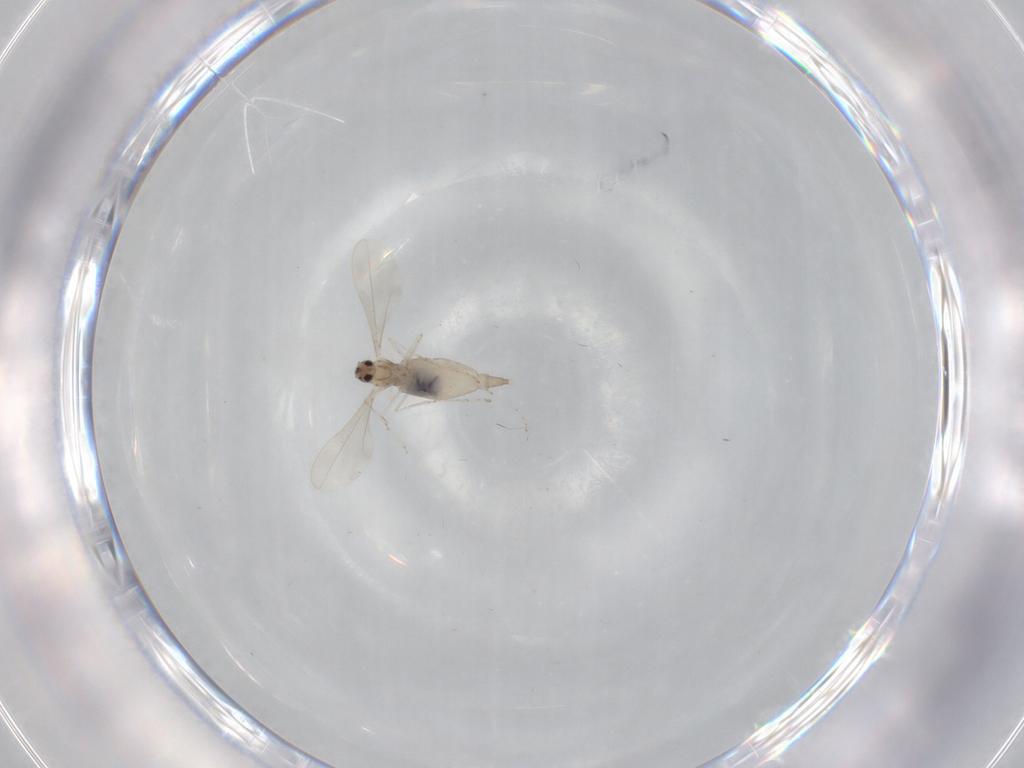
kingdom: Animalia
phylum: Arthropoda
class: Insecta
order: Diptera
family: Cecidomyiidae
